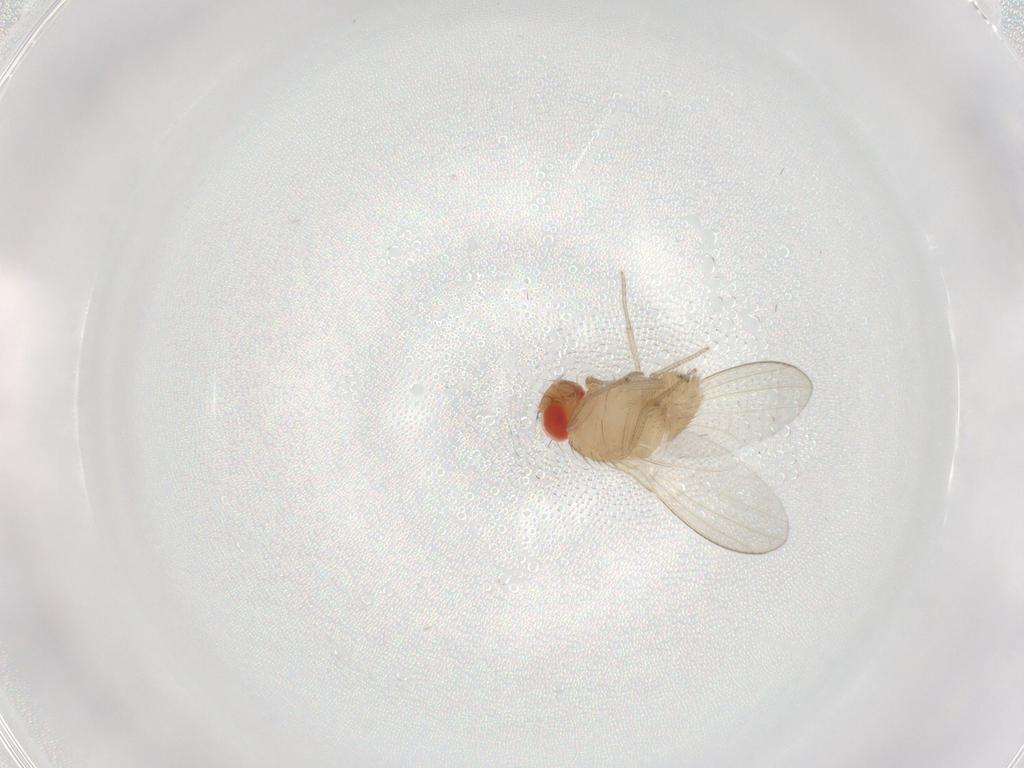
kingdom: Animalia
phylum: Arthropoda
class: Insecta
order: Diptera
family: Drosophilidae
